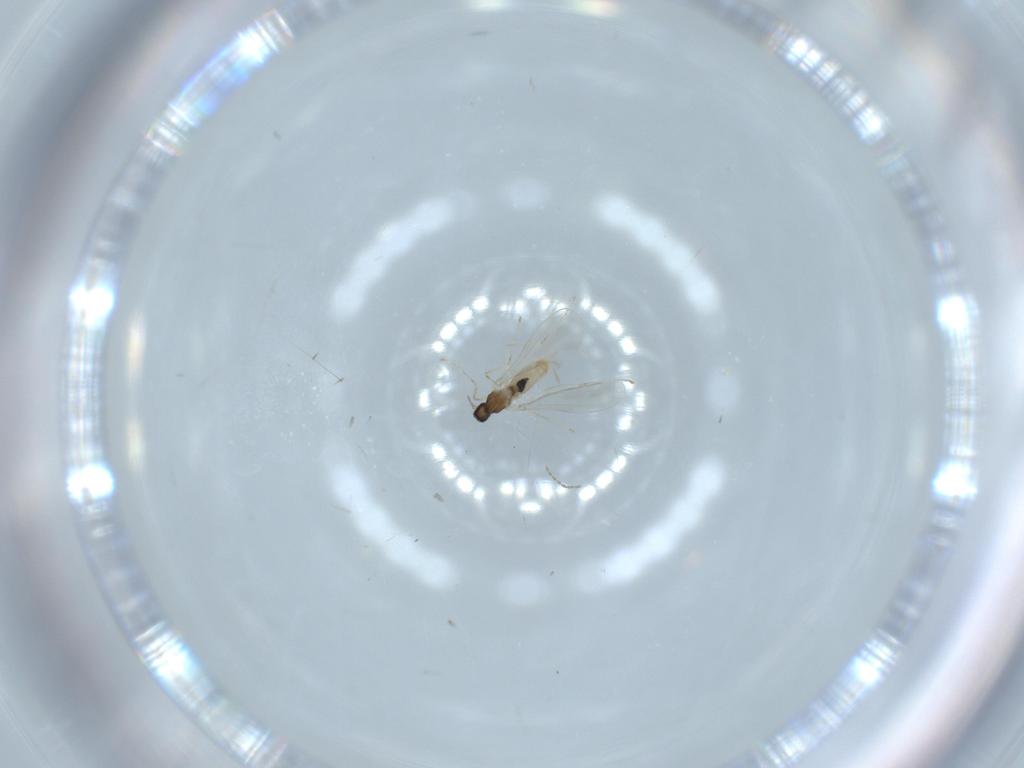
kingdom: Animalia
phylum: Arthropoda
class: Insecta
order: Diptera
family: Cecidomyiidae
